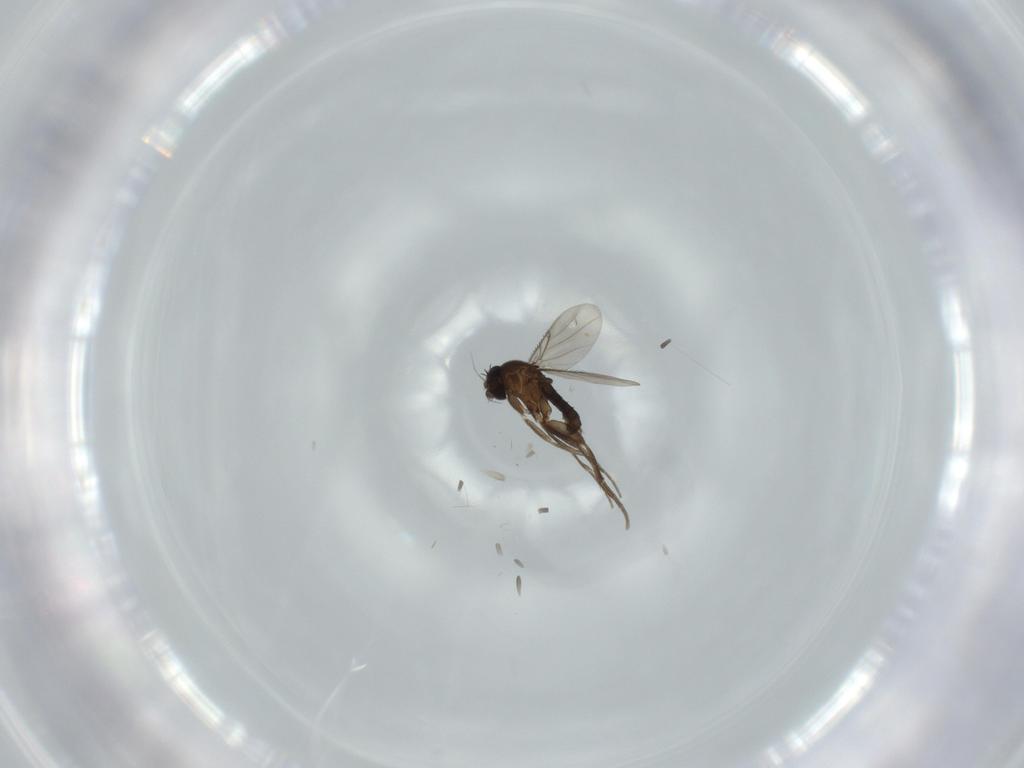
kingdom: Animalia
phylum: Arthropoda
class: Insecta
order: Diptera
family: Phoridae
